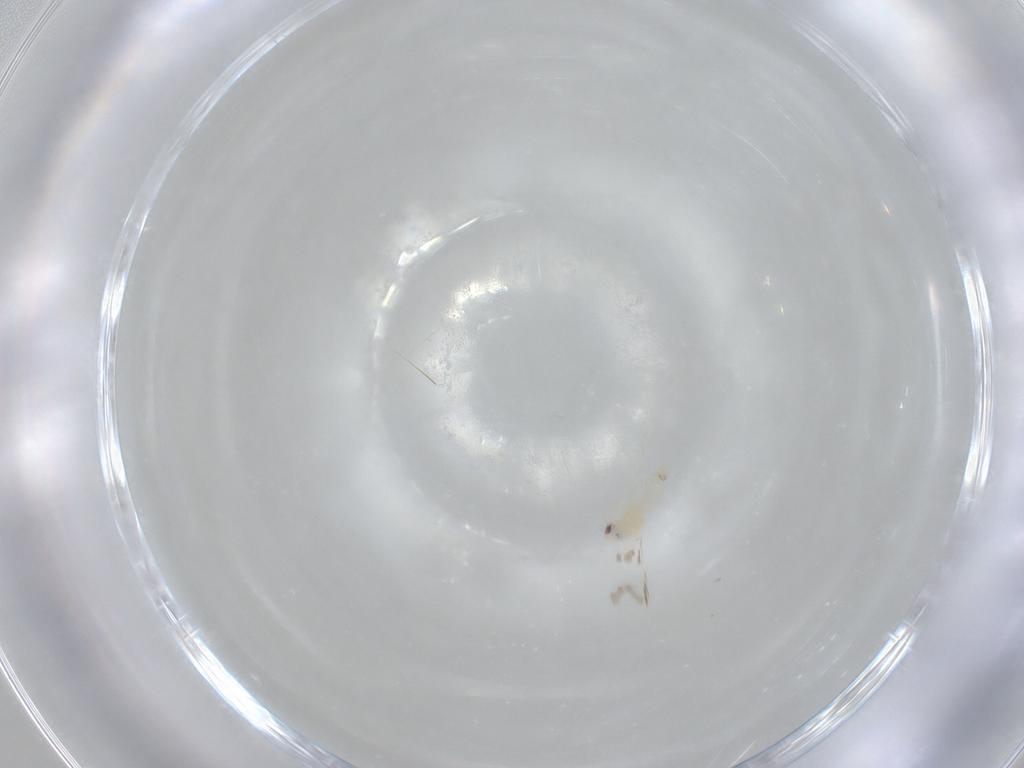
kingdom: Animalia
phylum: Arthropoda
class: Insecta
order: Hemiptera
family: Aleyrodidae
